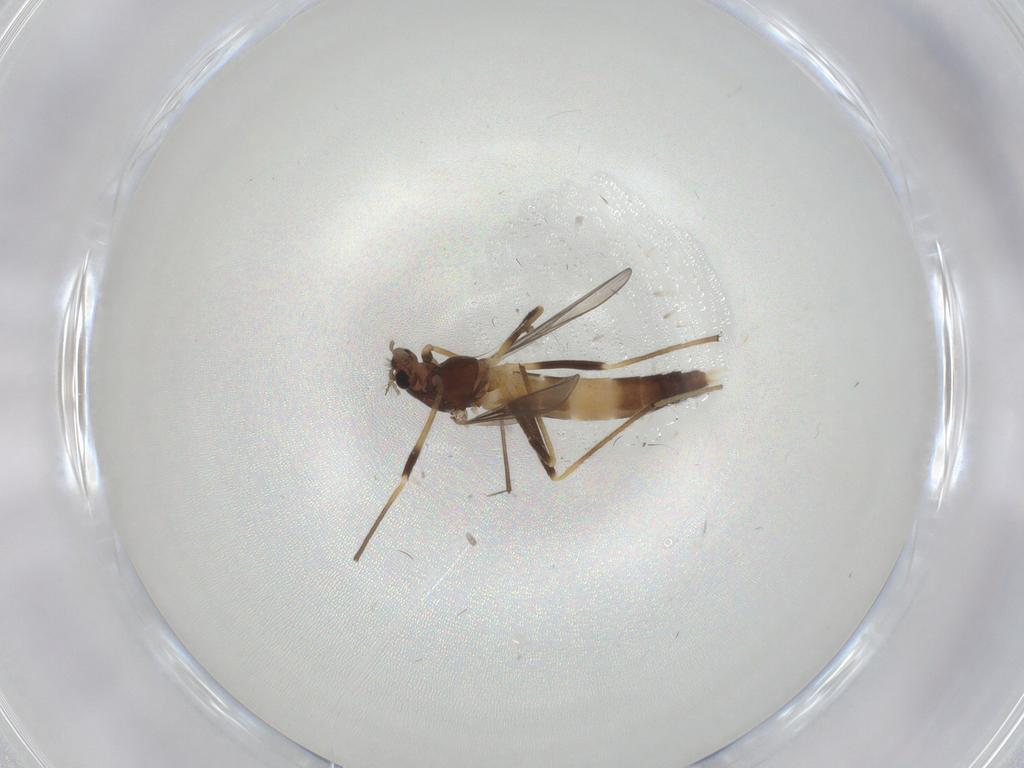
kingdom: Animalia
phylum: Arthropoda
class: Insecta
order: Diptera
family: Cecidomyiidae
